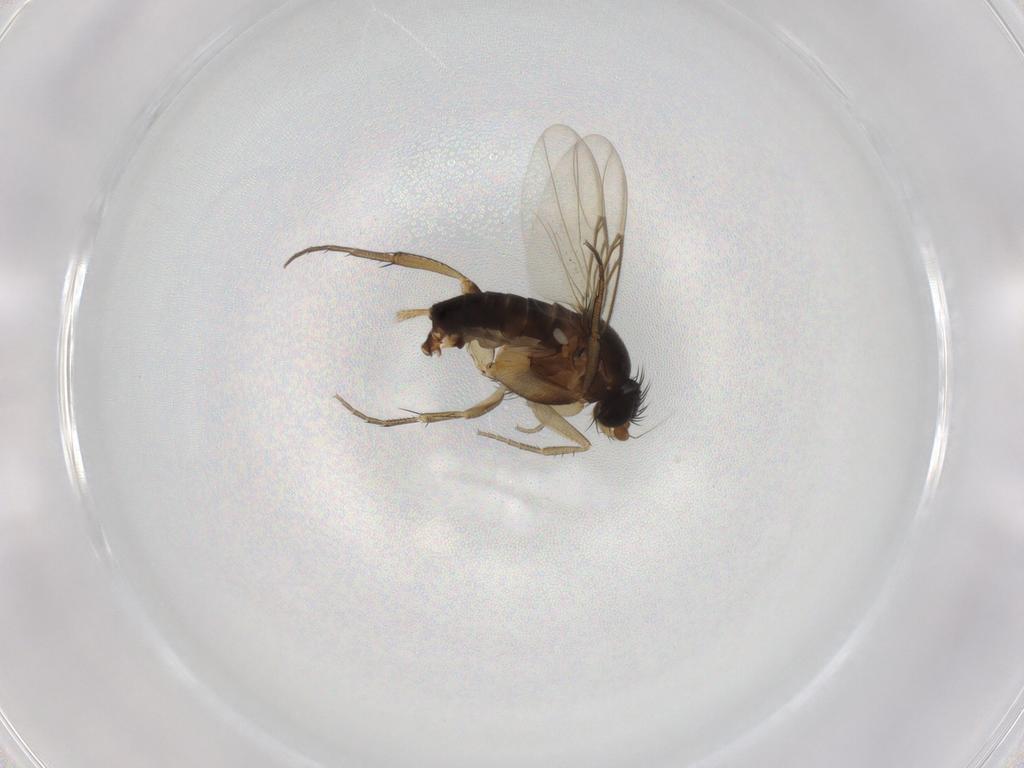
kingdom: Animalia
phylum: Arthropoda
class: Insecta
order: Diptera
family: Phoridae
